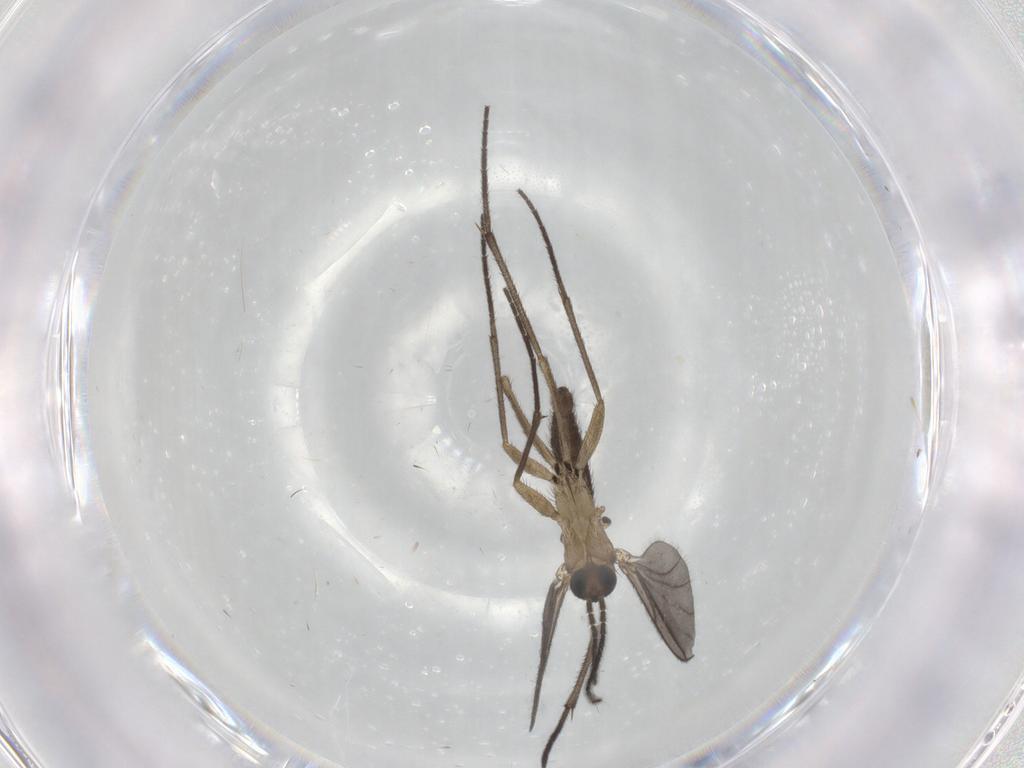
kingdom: Animalia
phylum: Arthropoda
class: Insecta
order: Diptera
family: Sciaridae
